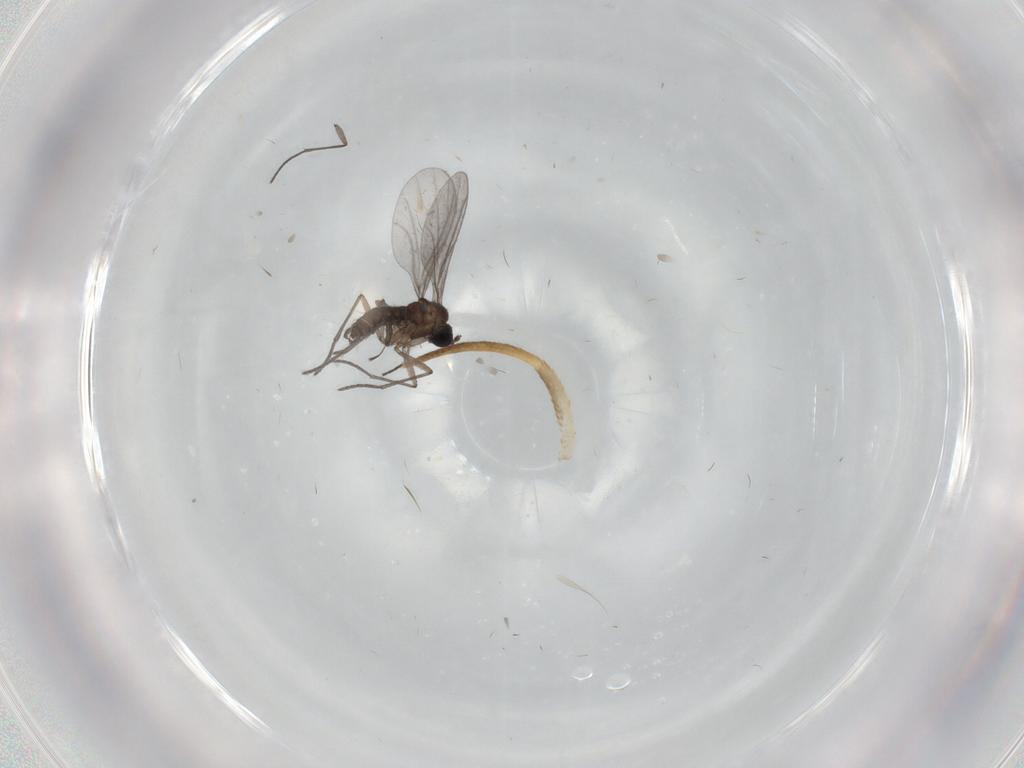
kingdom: Animalia
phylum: Arthropoda
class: Insecta
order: Diptera
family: Sciaridae
